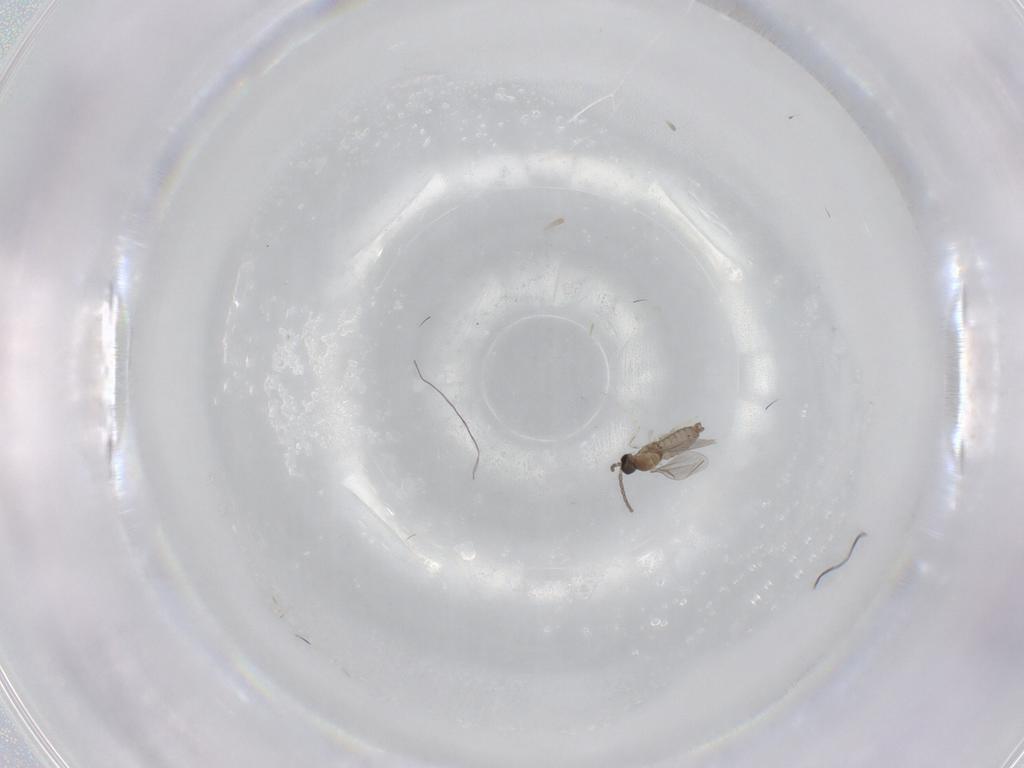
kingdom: Animalia
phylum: Arthropoda
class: Insecta
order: Diptera
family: Cecidomyiidae
